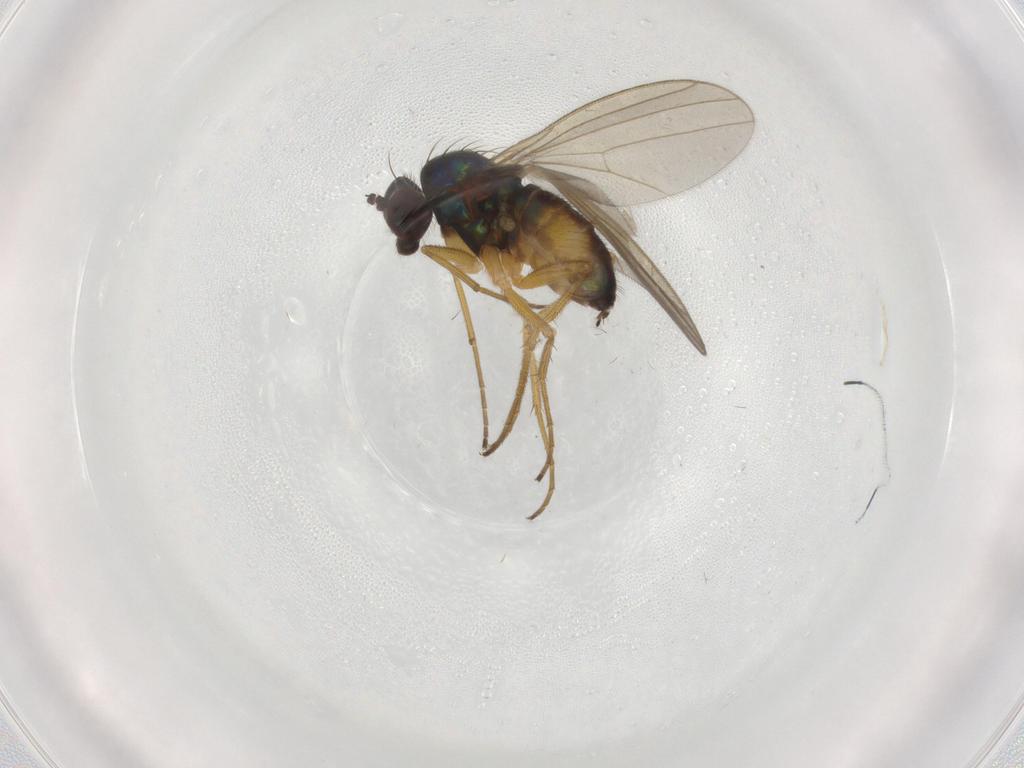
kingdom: Animalia
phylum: Arthropoda
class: Insecta
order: Diptera
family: Dolichopodidae
